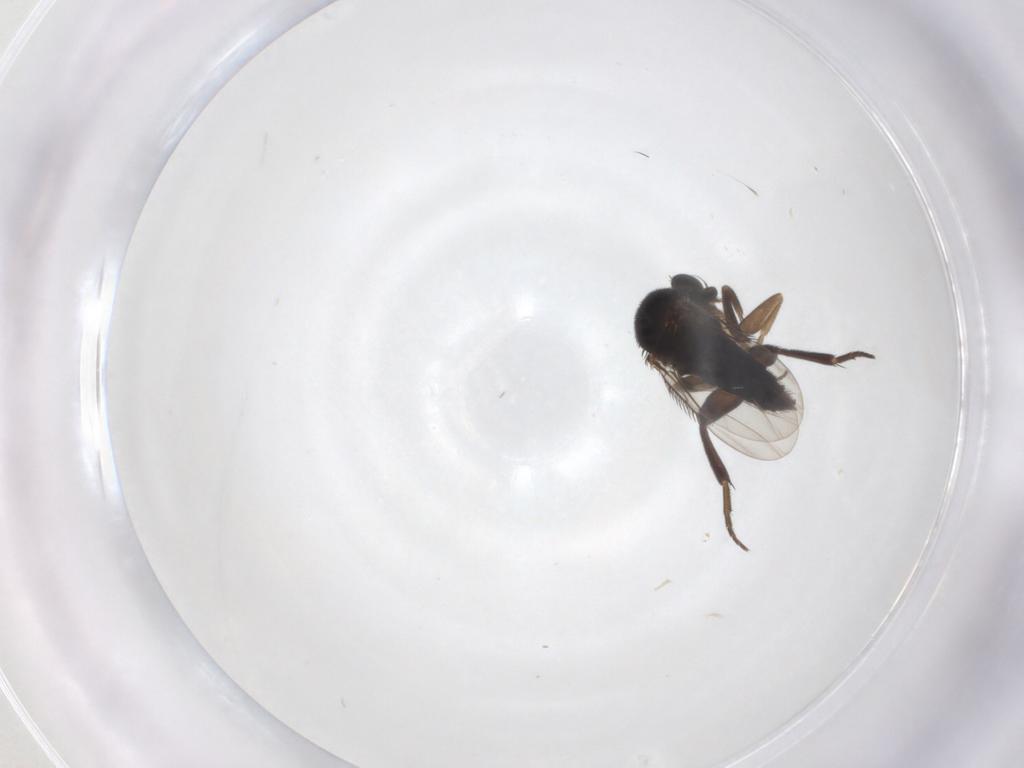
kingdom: Animalia
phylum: Arthropoda
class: Insecta
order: Diptera
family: Phoridae
